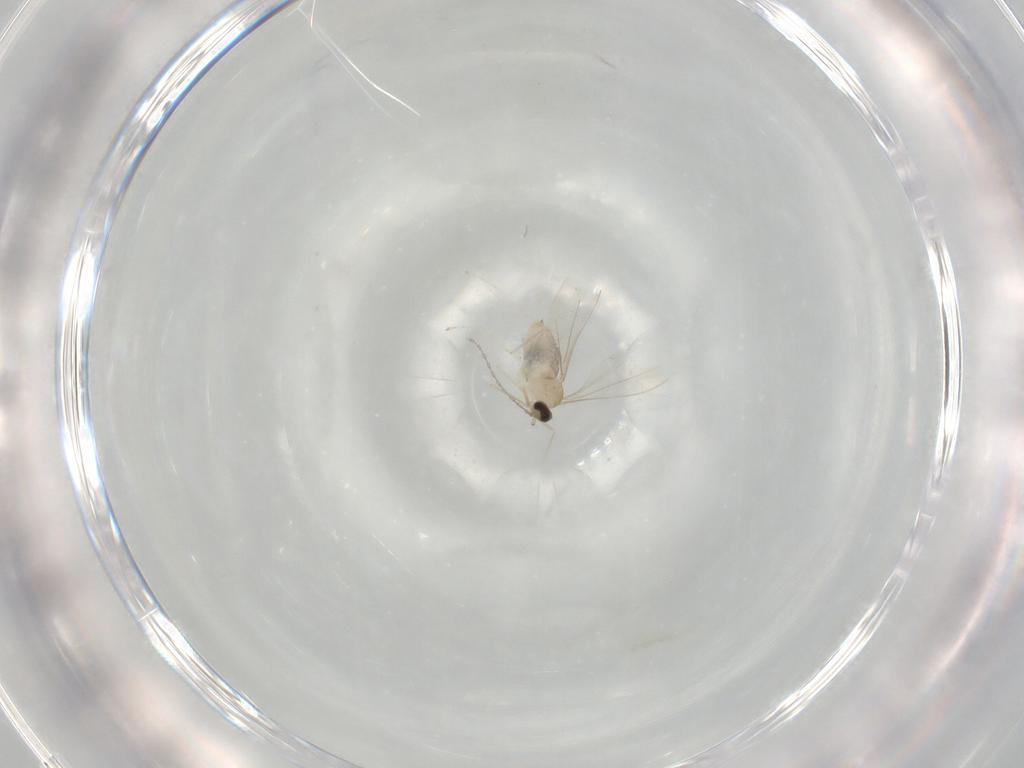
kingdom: Animalia
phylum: Arthropoda
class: Insecta
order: Diptera
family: Cecidomyiidae
